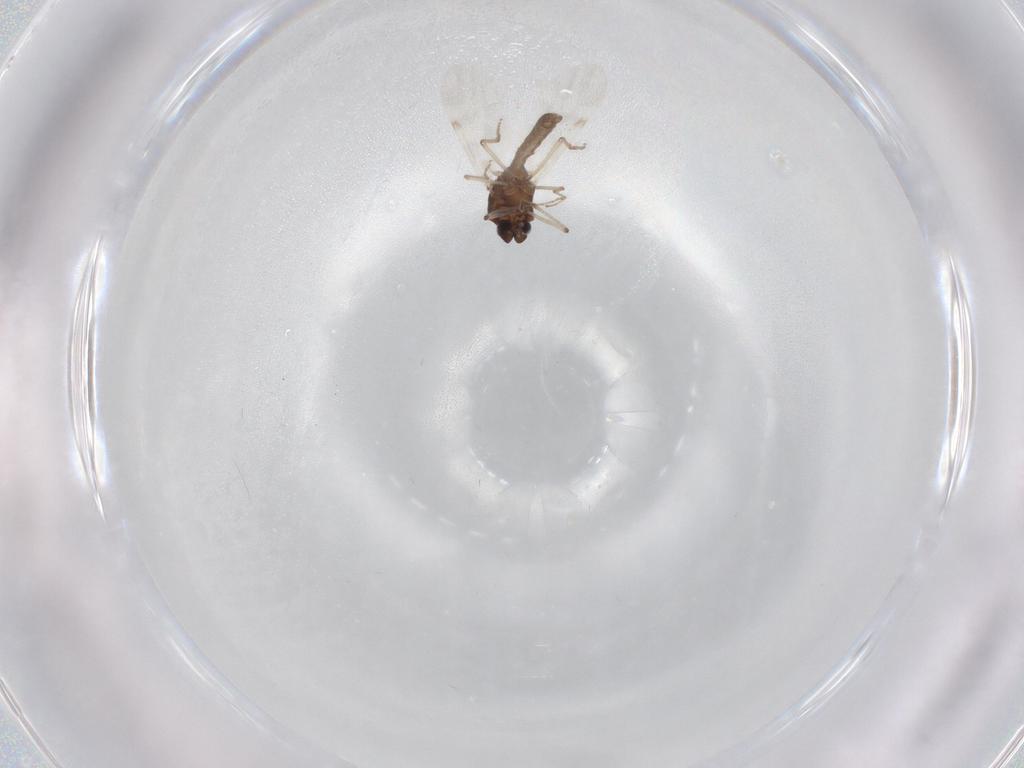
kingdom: Animalia
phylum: Arthropoda
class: Insecta
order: Diptera
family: Ceratopogonidae
